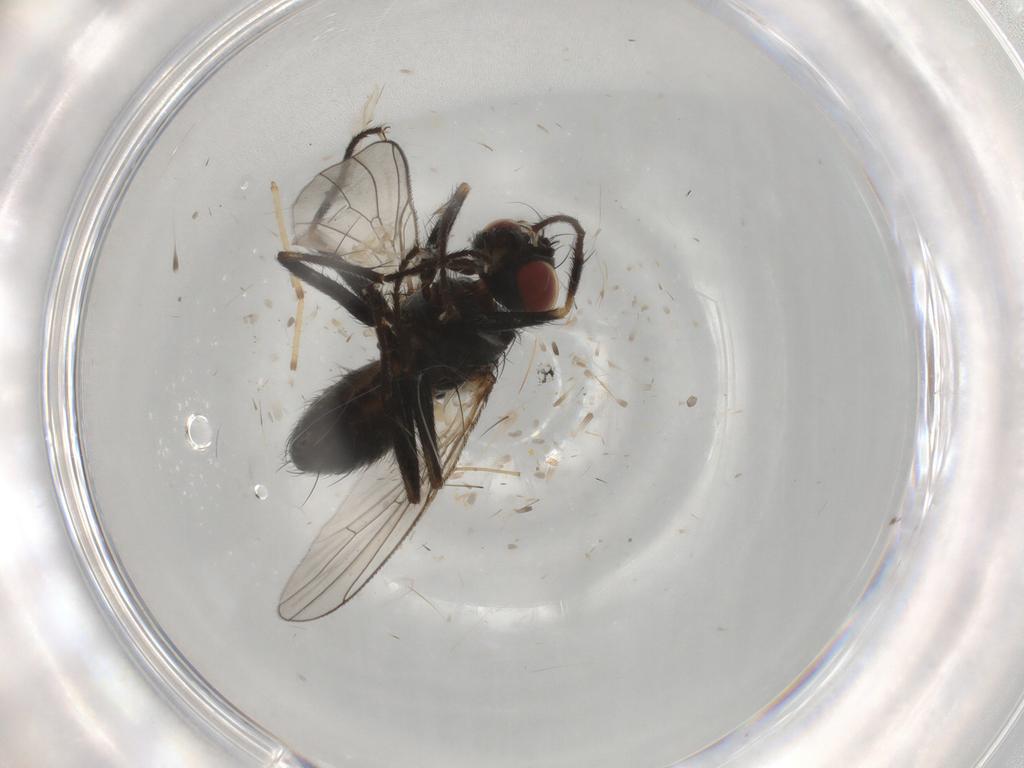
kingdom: Animalia
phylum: Arthropoda
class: Insecta
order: Diptera
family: Muscidae
